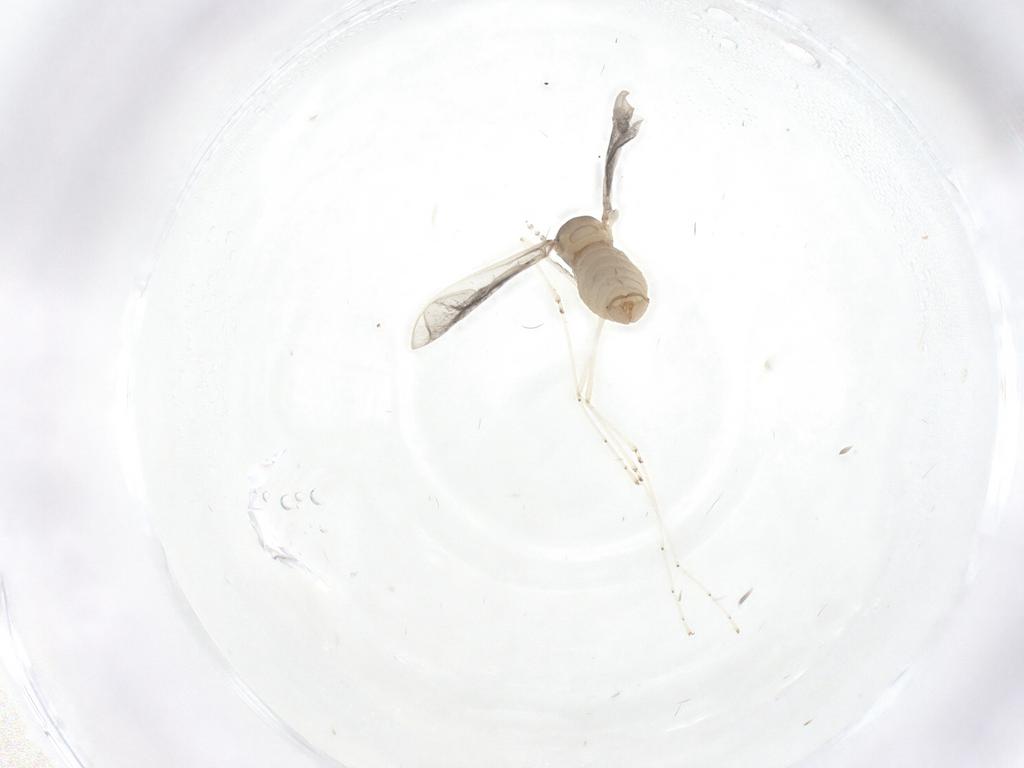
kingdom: Animalia
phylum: Arthropoda
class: Insecta
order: Diptera
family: Cecidomyiidae
